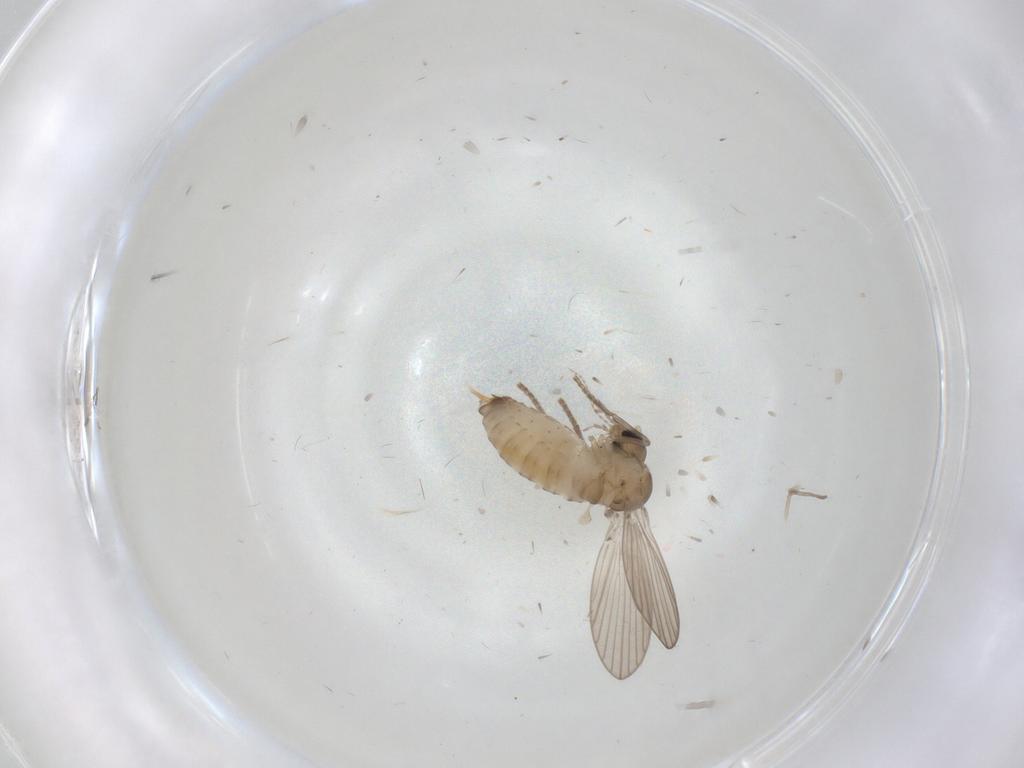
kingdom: Animalia
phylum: Arthropoda
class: Insecta
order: Diptera
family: Psychodidae
